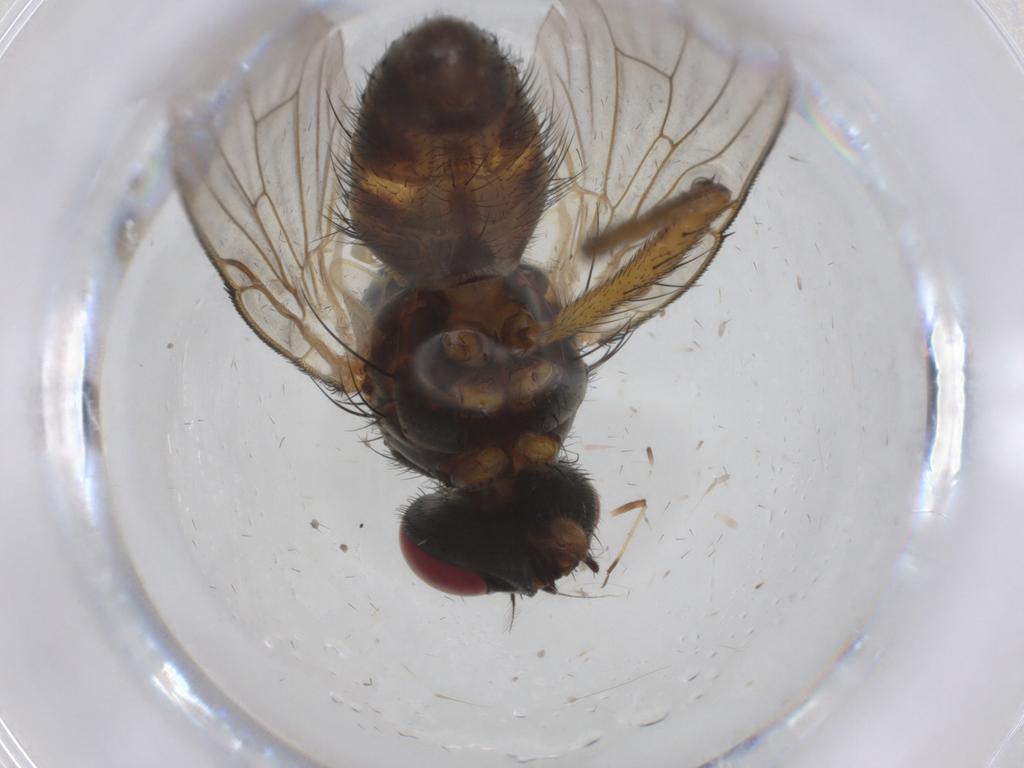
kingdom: Animalia
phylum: Arthropoda
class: Insecta
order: Diptera
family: Muscidae
